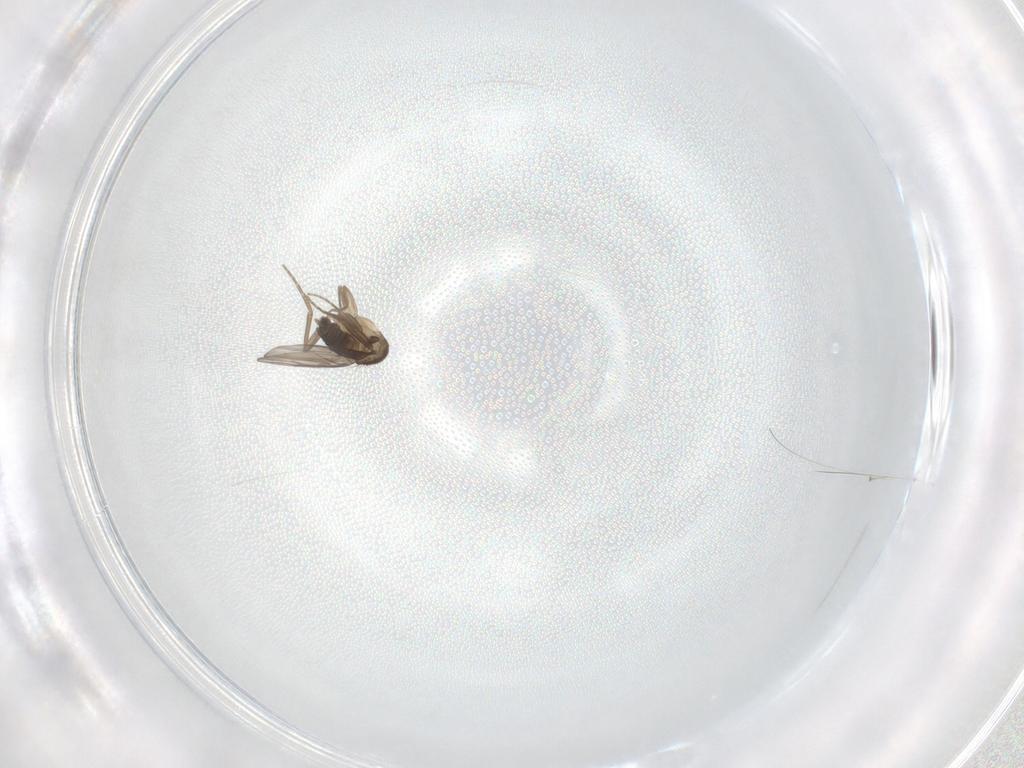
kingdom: Animalia
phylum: Arthropoda
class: Insecta
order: Diptera
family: Phoridae
